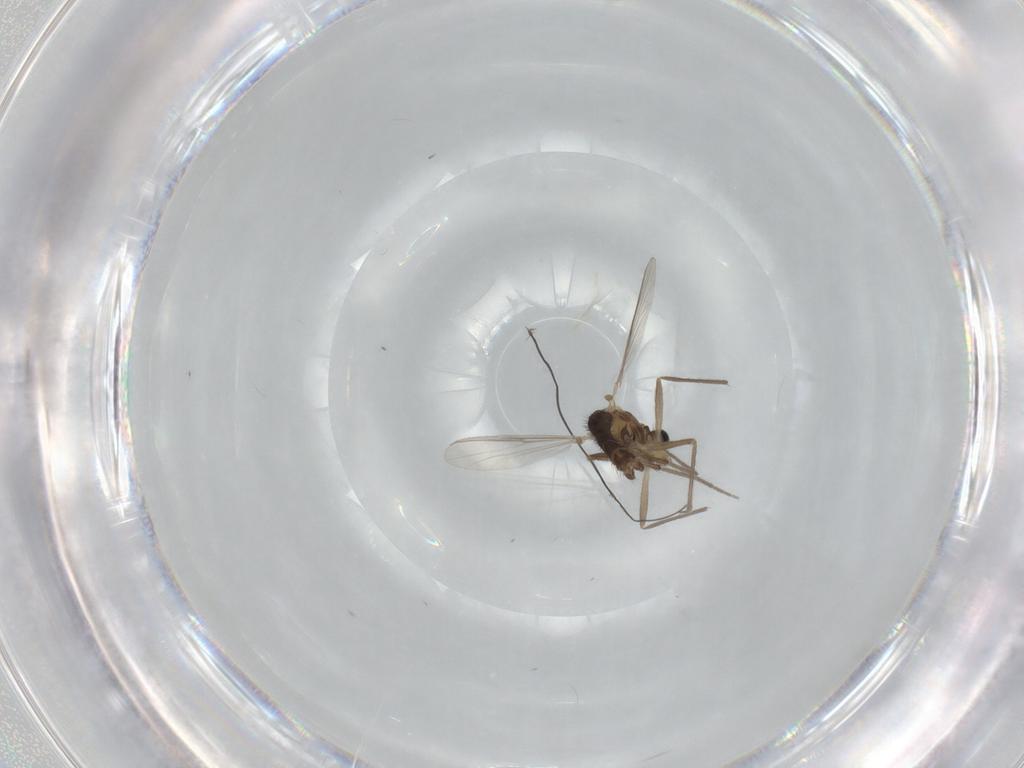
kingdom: Animalia
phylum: Arthropoda
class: Insecta
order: Diptera
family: Chironomidae
